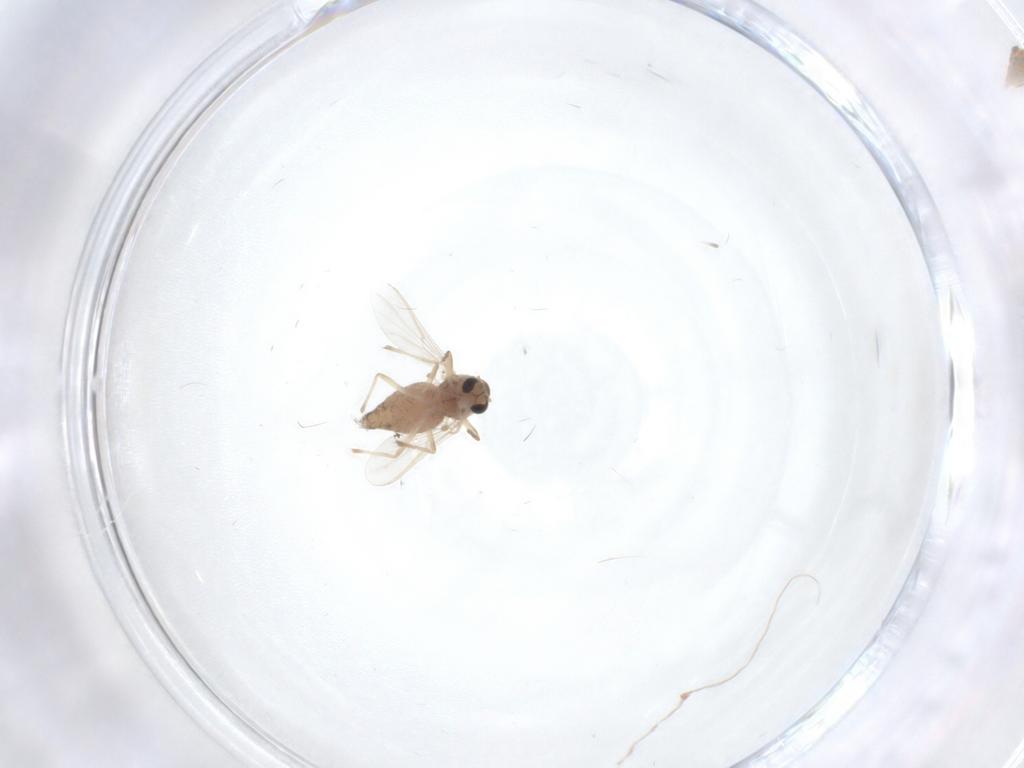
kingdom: Animalia
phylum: Arthropoda
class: Insecta
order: Diptera
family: Chironomidae
